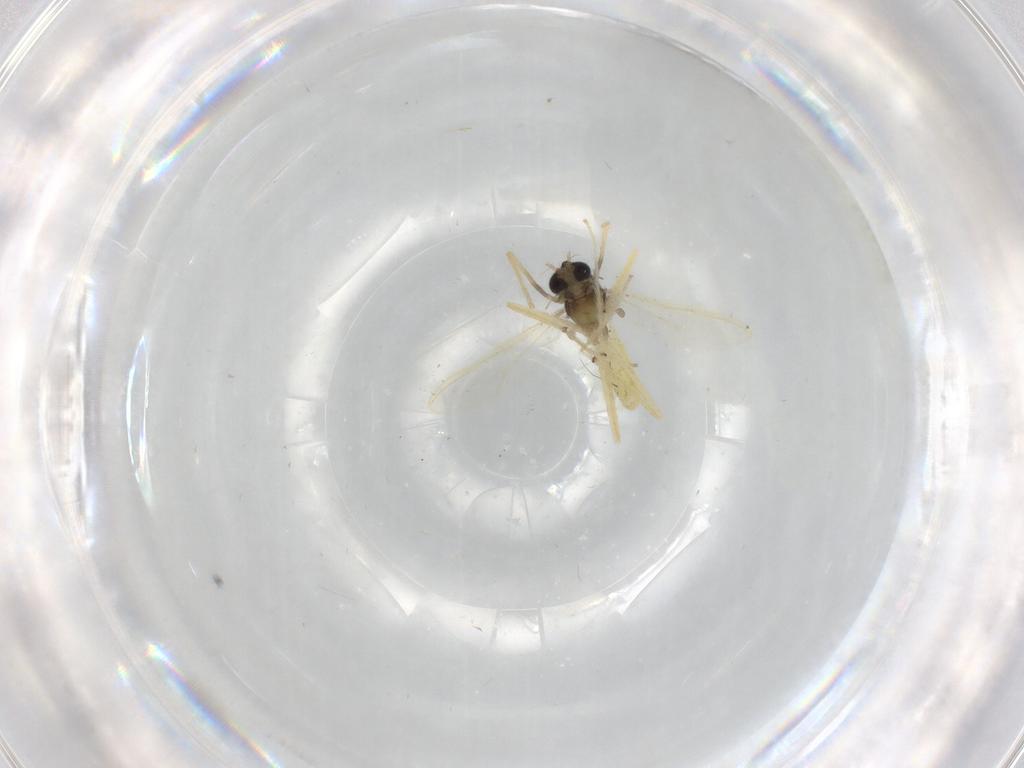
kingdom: Animalia
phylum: Arthropoda
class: Insecta
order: Diptera
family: Chironomidae
